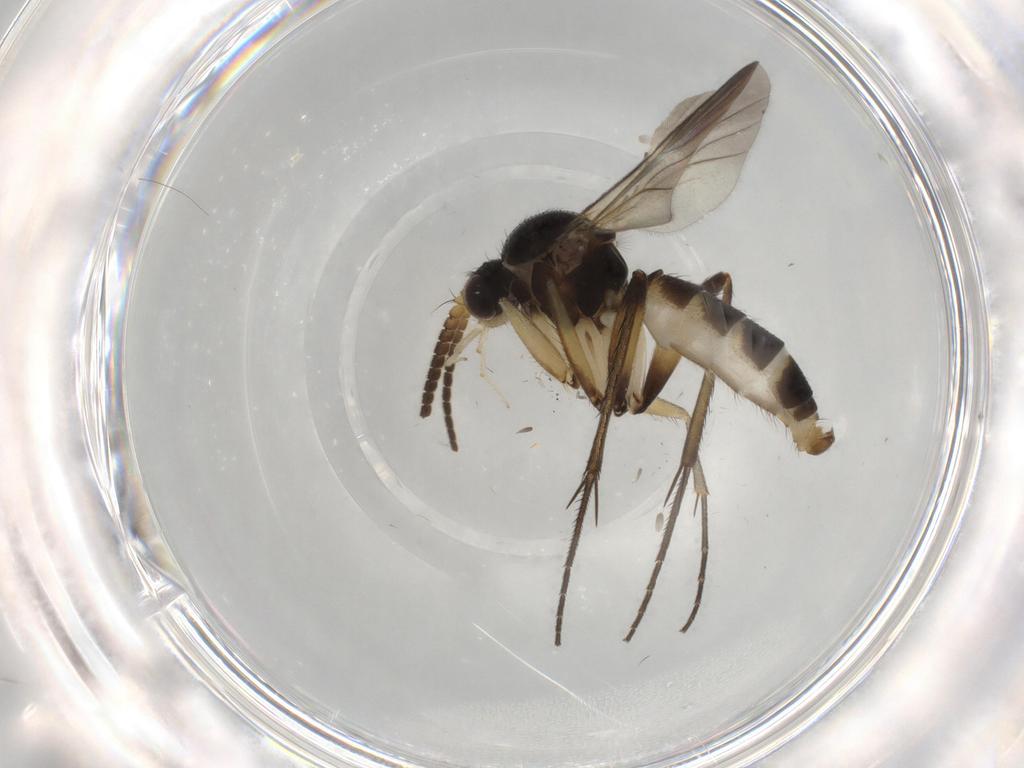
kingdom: Animalia
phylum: Arthropoda
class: Insecta
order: Diptera
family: Mycetophilidae
